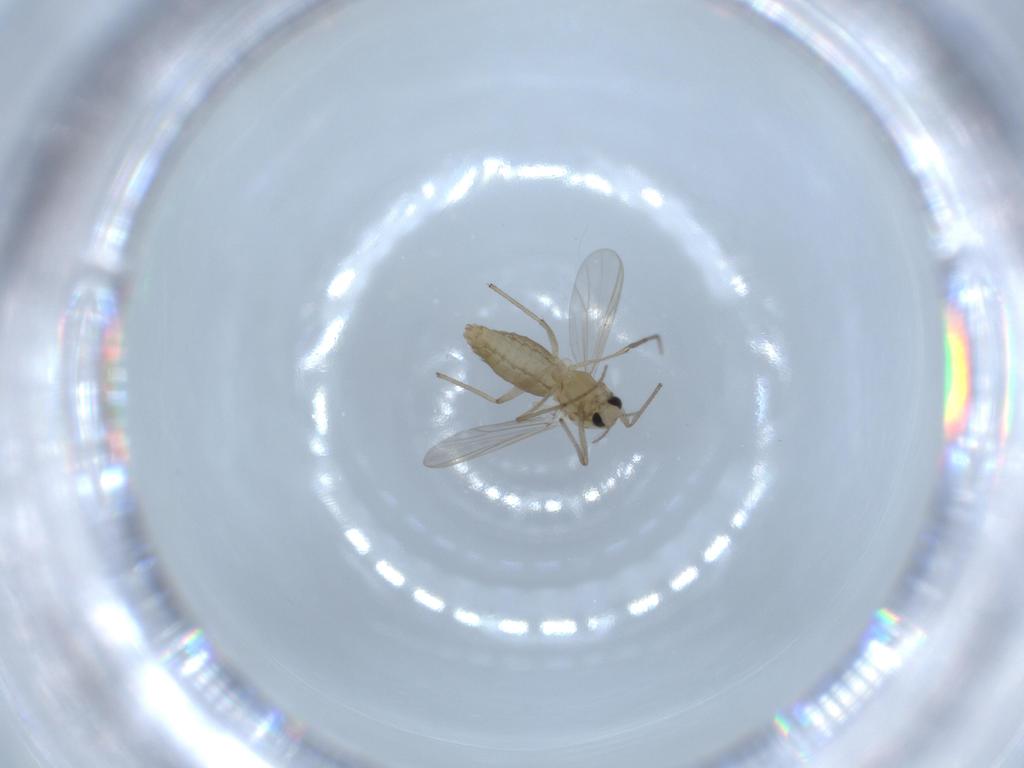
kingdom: Animalia
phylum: Arthropoda
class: Insecta
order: Diptera
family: Chironomidae
